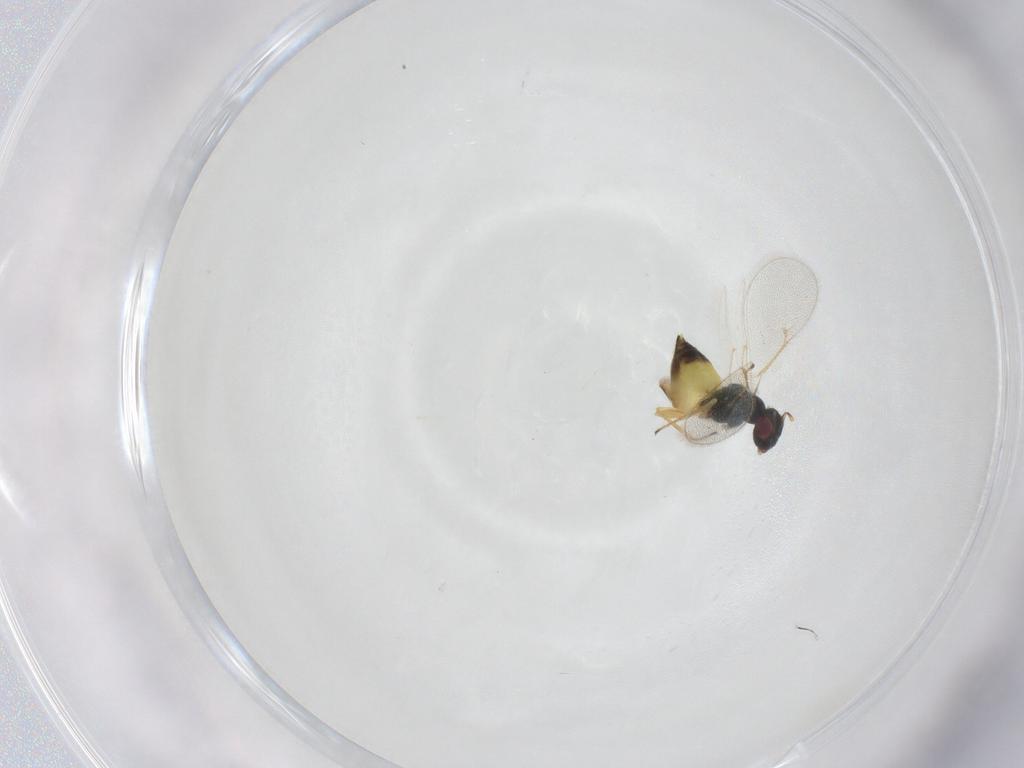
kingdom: Animalia
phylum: Arthropoda
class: Insecta
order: Hymenoptera
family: Eulophidae
